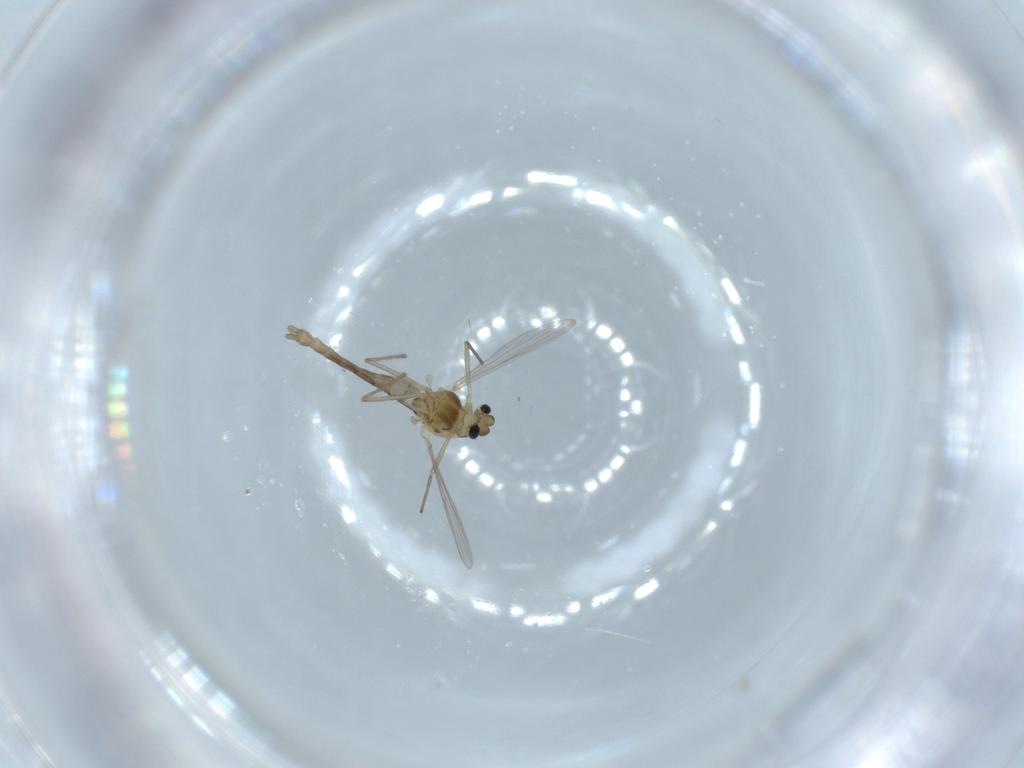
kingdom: Animalia
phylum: Arthropoda
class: Insecta
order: Diptera
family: Chironomidae
